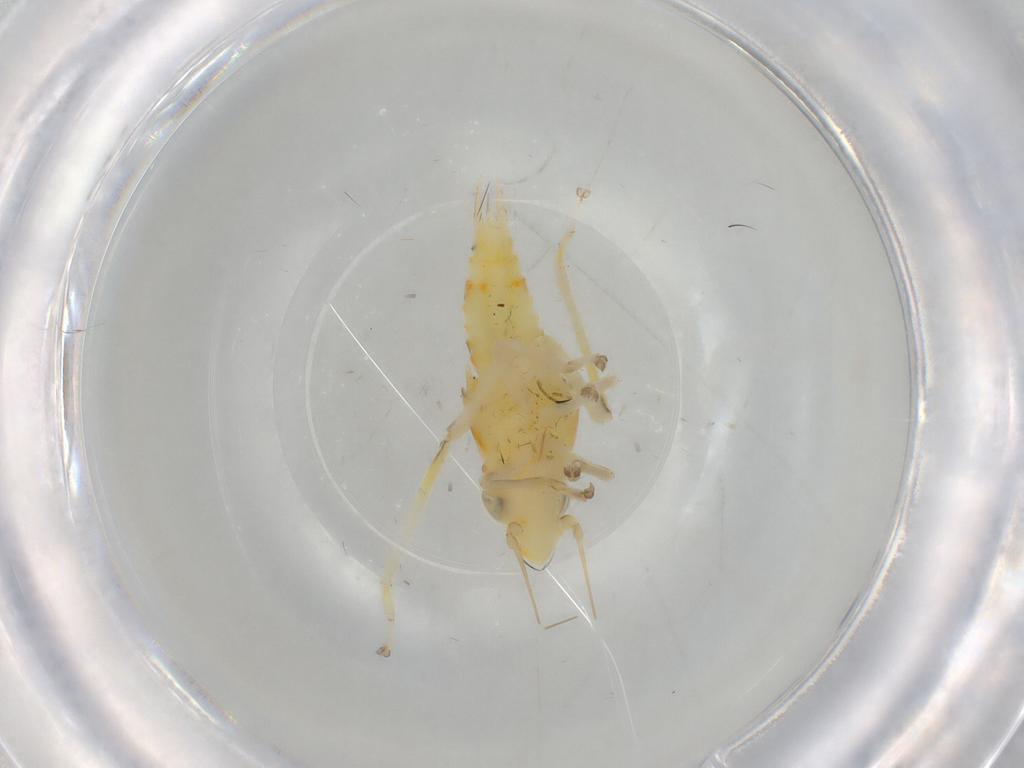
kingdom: Animalia
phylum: Arthropoda
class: Insecta
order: Hemiptera
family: Cicadellidae
